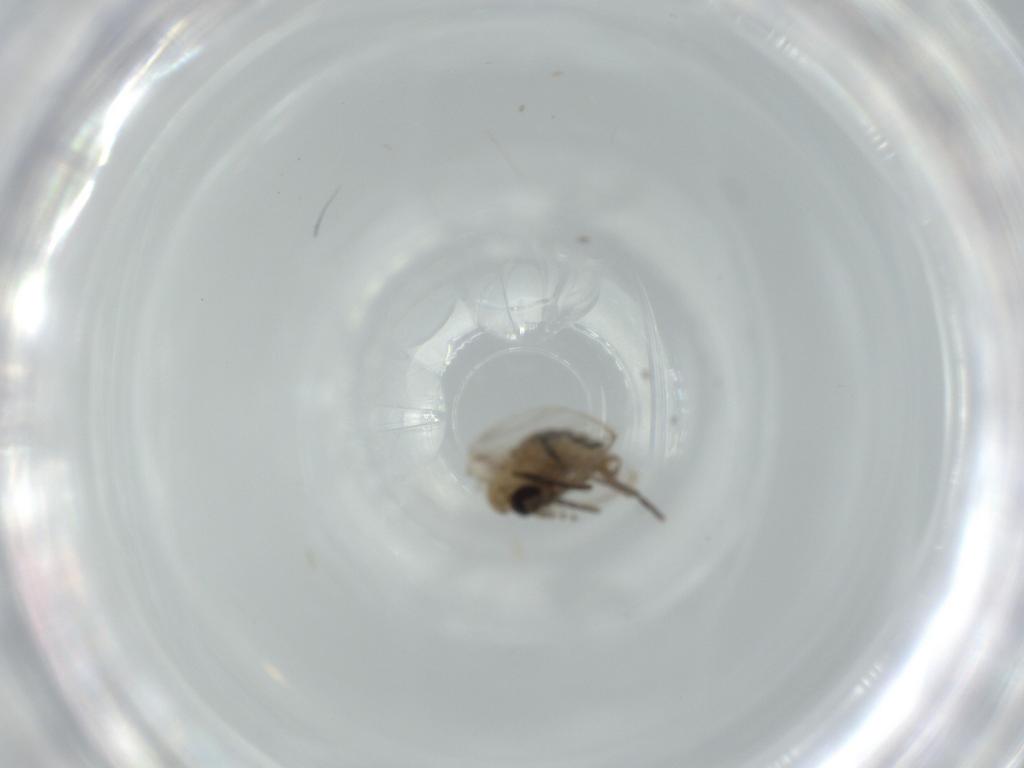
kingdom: Animalia
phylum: Arthropoda
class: Insecta
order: Diptera
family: Psychodidae
